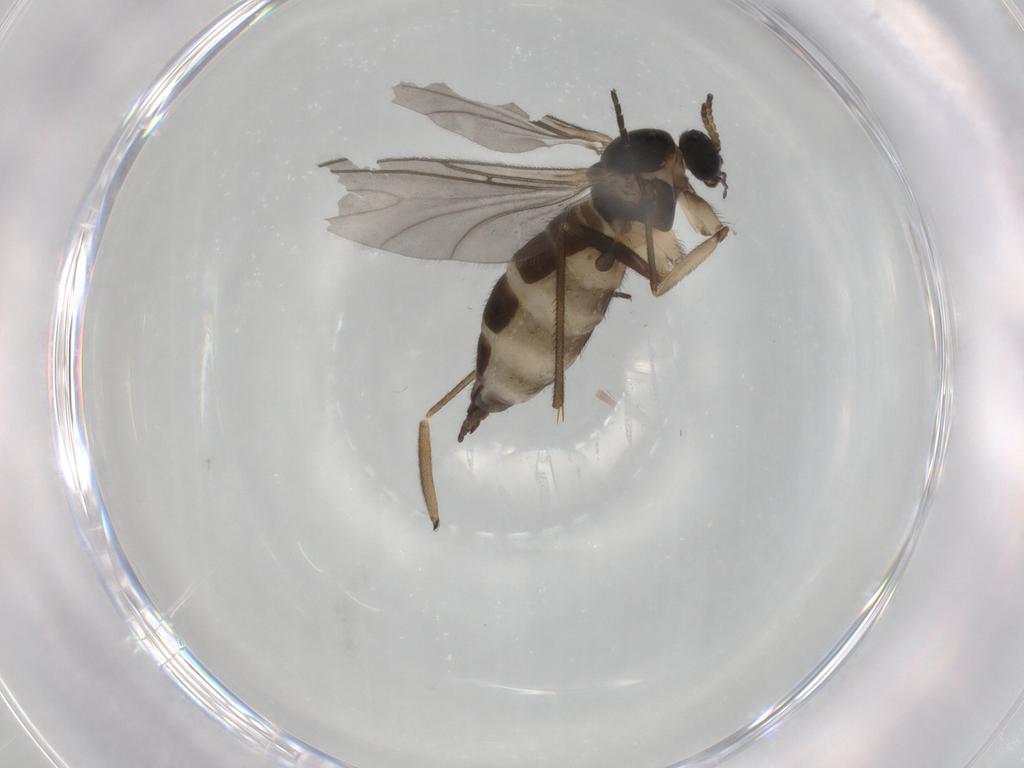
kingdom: Animalia
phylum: Arthropoda
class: Insecta
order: Diptera
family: Sciaridae
